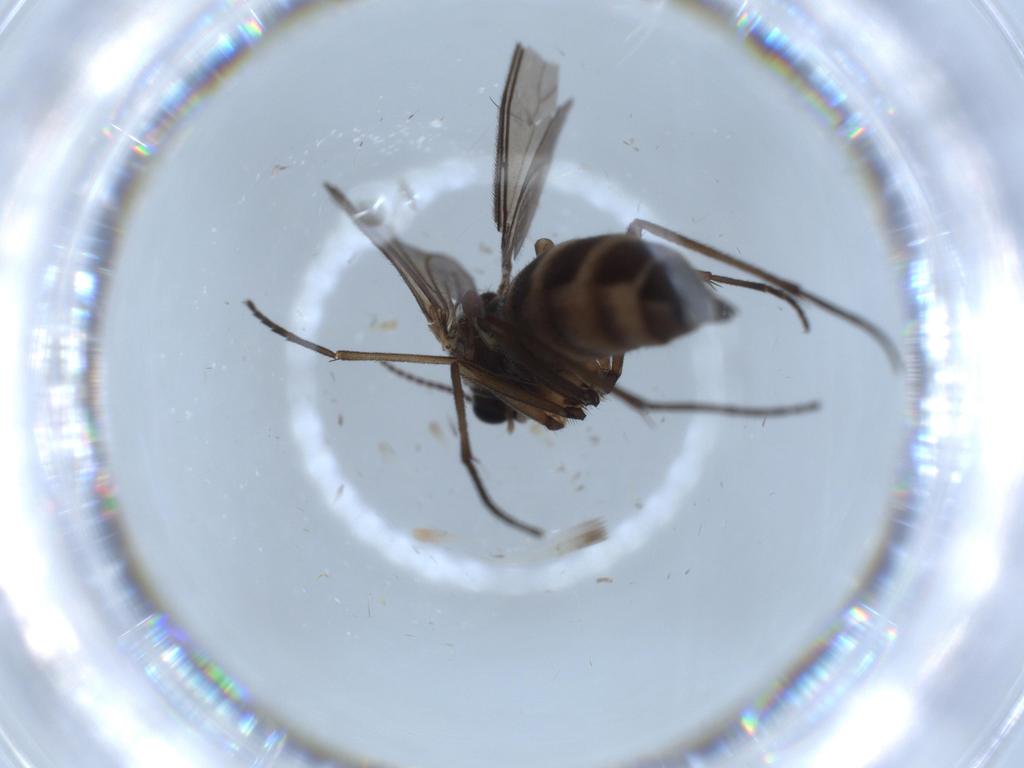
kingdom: Animalia
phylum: Arthropoda
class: Insecta
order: Diptera
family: Sciaridae
